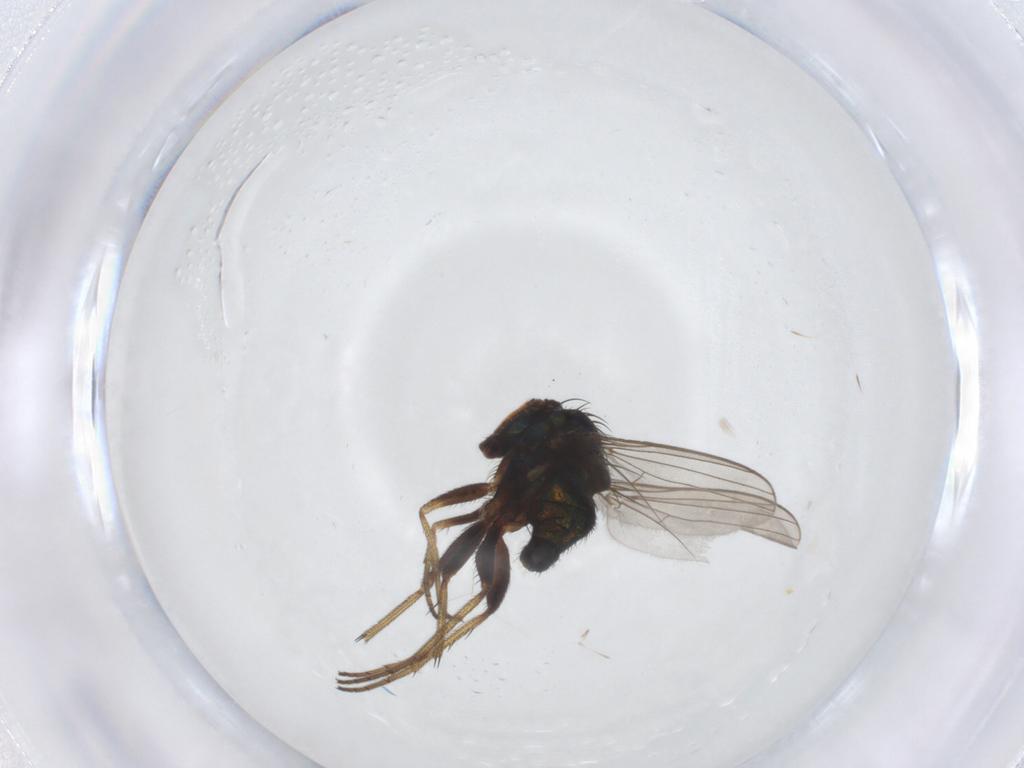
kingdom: Animalia
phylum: Arthropoda
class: Insecta
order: Diptera
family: Dolichopodidae
